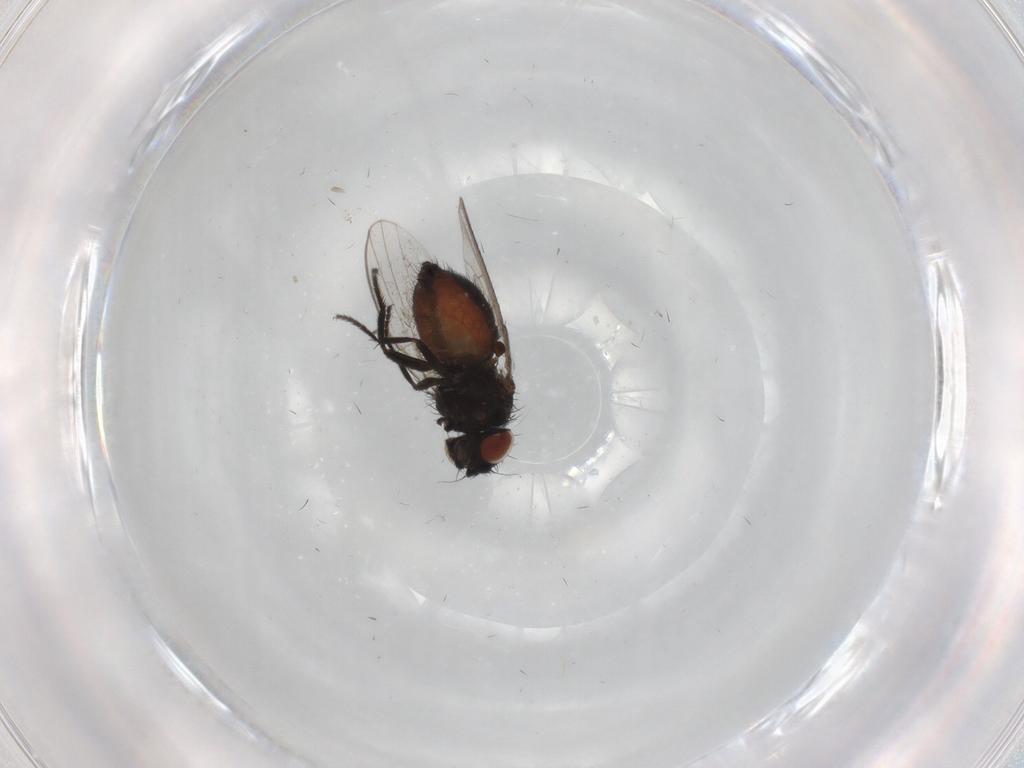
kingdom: Animalia
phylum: Arthropoda
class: Insecta
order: Diptera
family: Milichiidae
